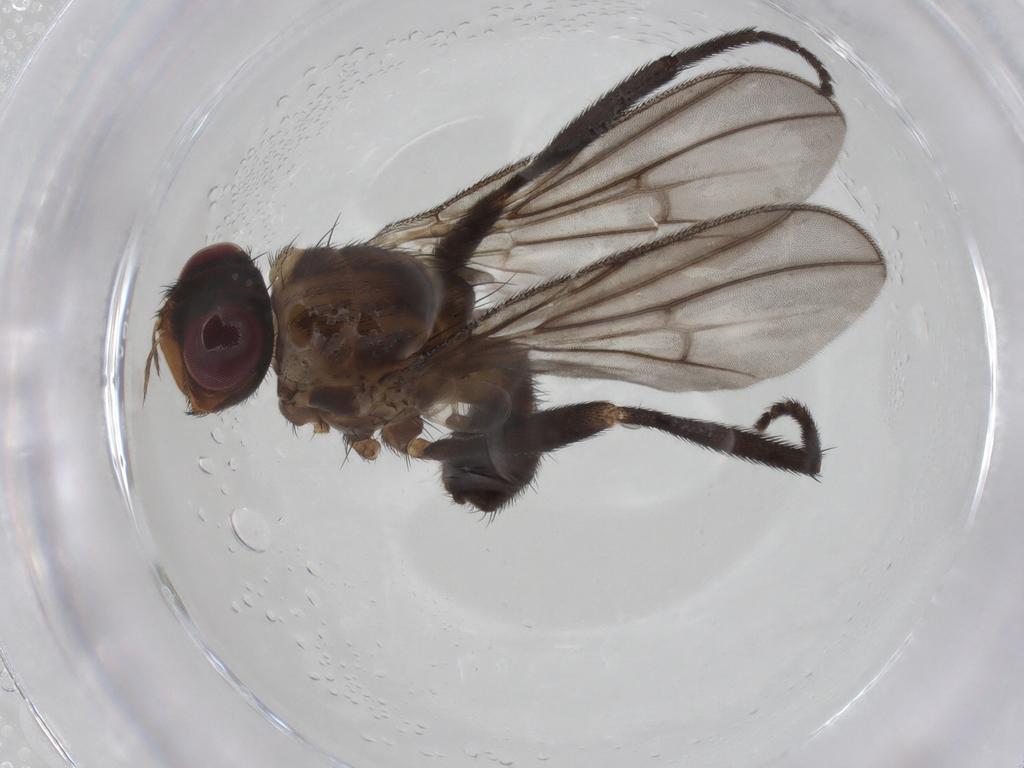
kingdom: Animalia
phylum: Arthropoda
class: Insecta
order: Diptera
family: Calliphoridae
